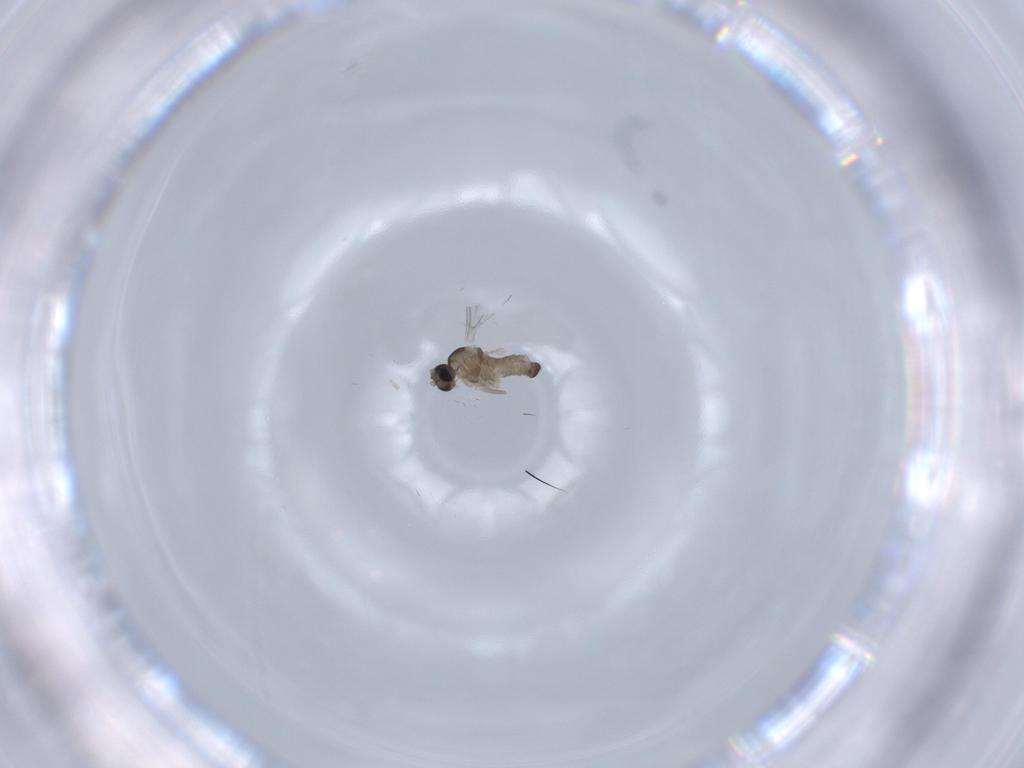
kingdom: Animalia
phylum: Arthropoda
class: Insecta
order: Diptera
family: Cecidomyiidae
